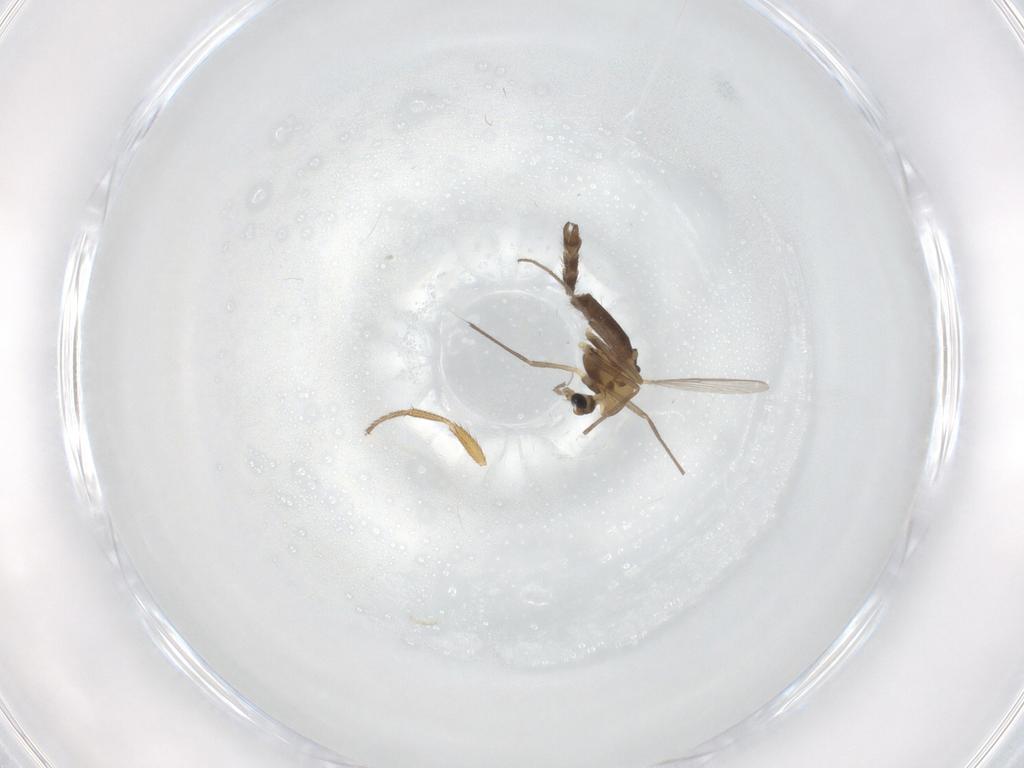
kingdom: Animalia
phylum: Arthropoda
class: Insecta
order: Diptera
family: Chironomidae
